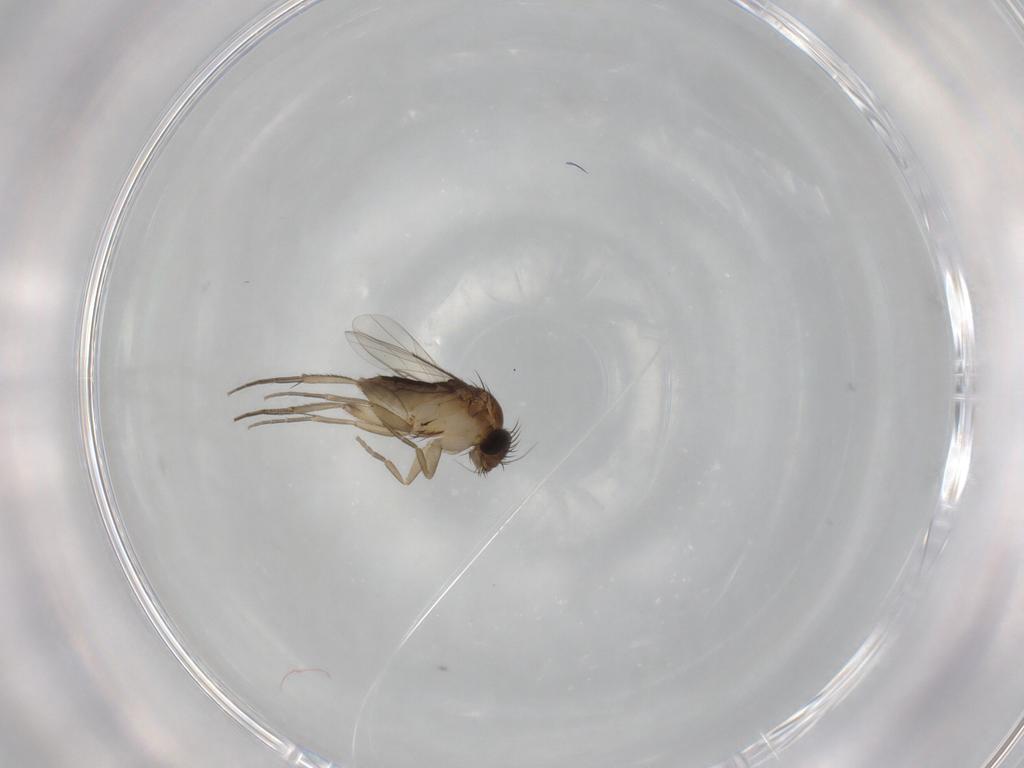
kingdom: Animalia
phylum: Arthropoda
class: Insecta
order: Diptera
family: Phoridae
